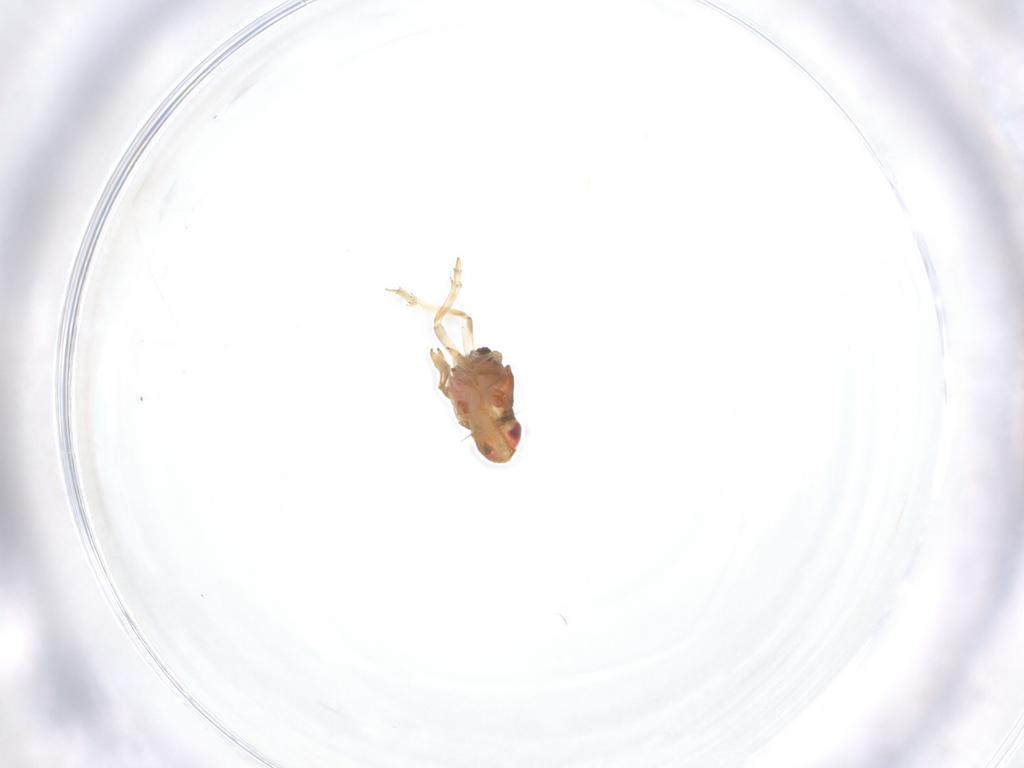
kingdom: Animalia
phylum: Arthropoda
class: Insecta
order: Hemiptera
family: Issidae
